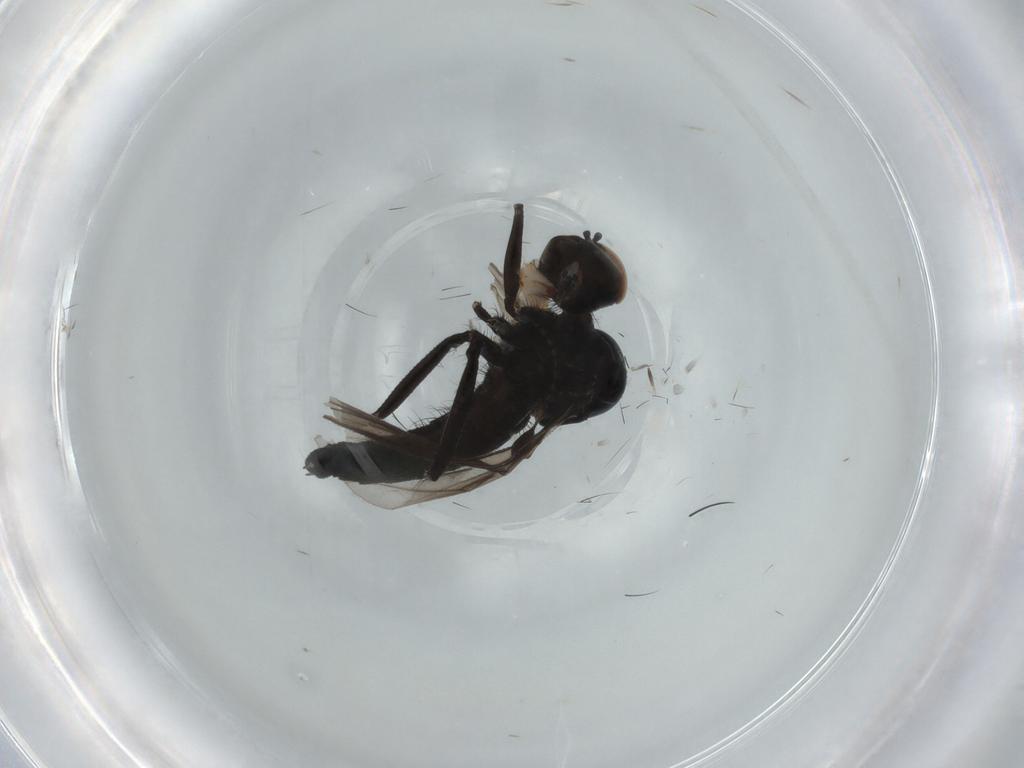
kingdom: Animalia
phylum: Arthropoda
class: Insecta
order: Diptera
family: Hybotidae
